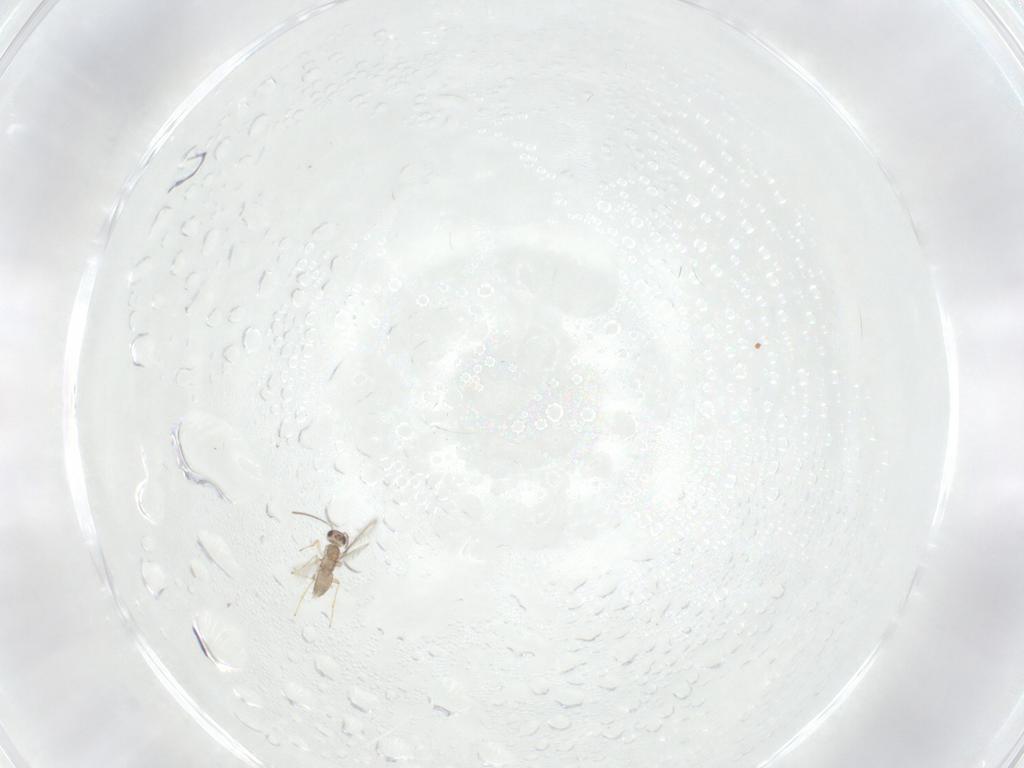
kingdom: Animalia
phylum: Arthropoda
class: Insecta
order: Hymenoptera
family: Mymaridae
